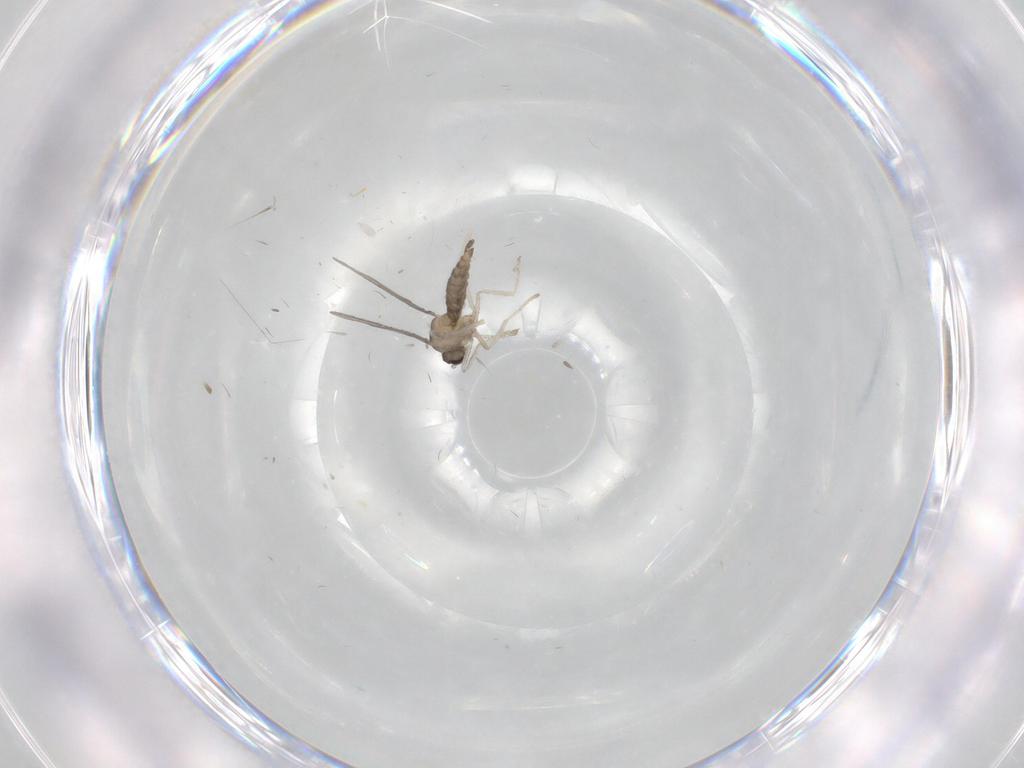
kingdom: Animalia
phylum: Arthropoda
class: Insecta
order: Diptera
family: Cecidomyiidae
